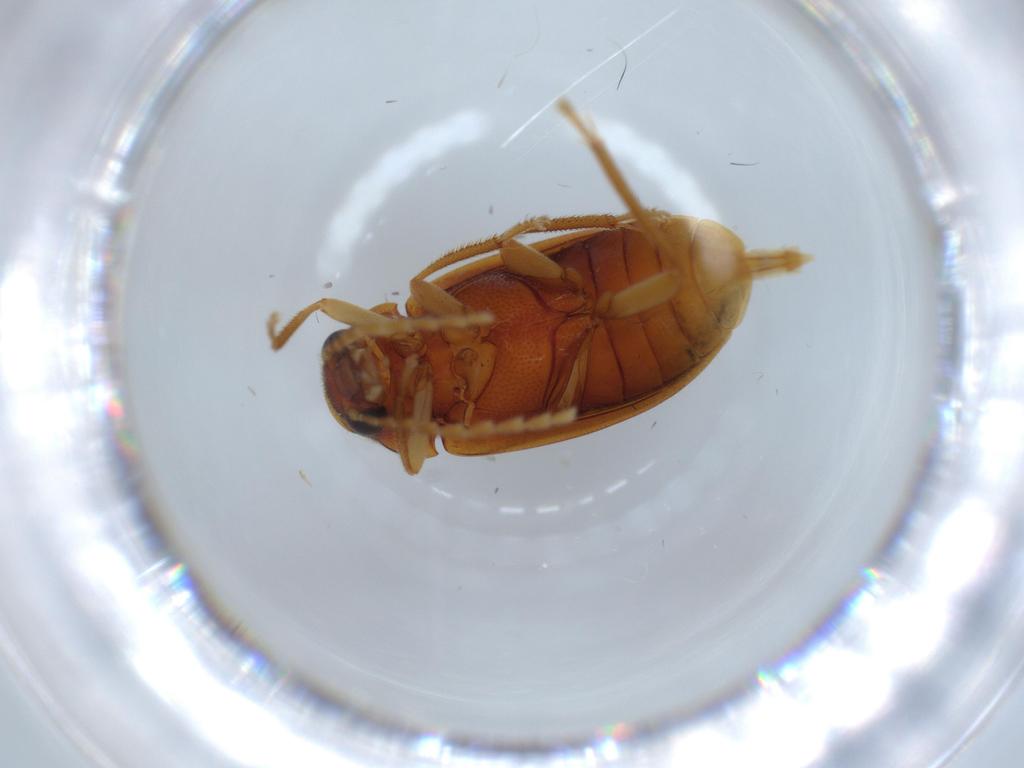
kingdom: Animalia
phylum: Arthropoda
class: Insecta
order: Coleoptera
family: Ptilodactylidae
